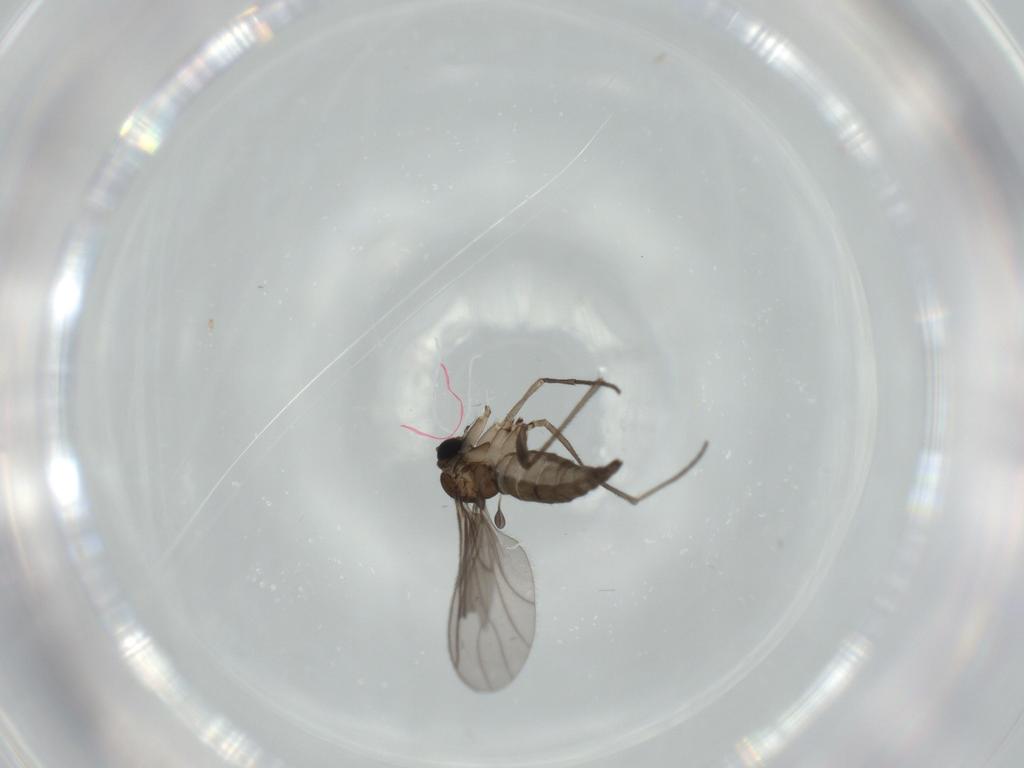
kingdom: Animalia
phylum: Arthropoda
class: Insecta
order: Diptera
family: Sciaridae
